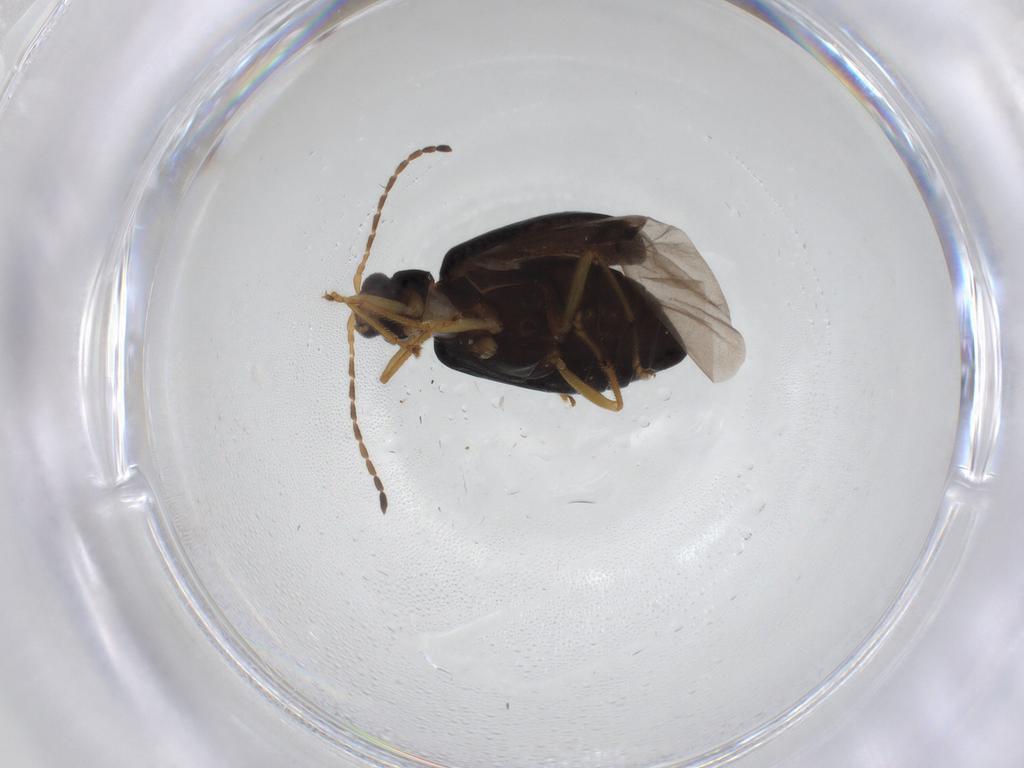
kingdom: Animalia
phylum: Arthropoda
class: Insecta
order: Coleoptera
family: Chrysomelidae
